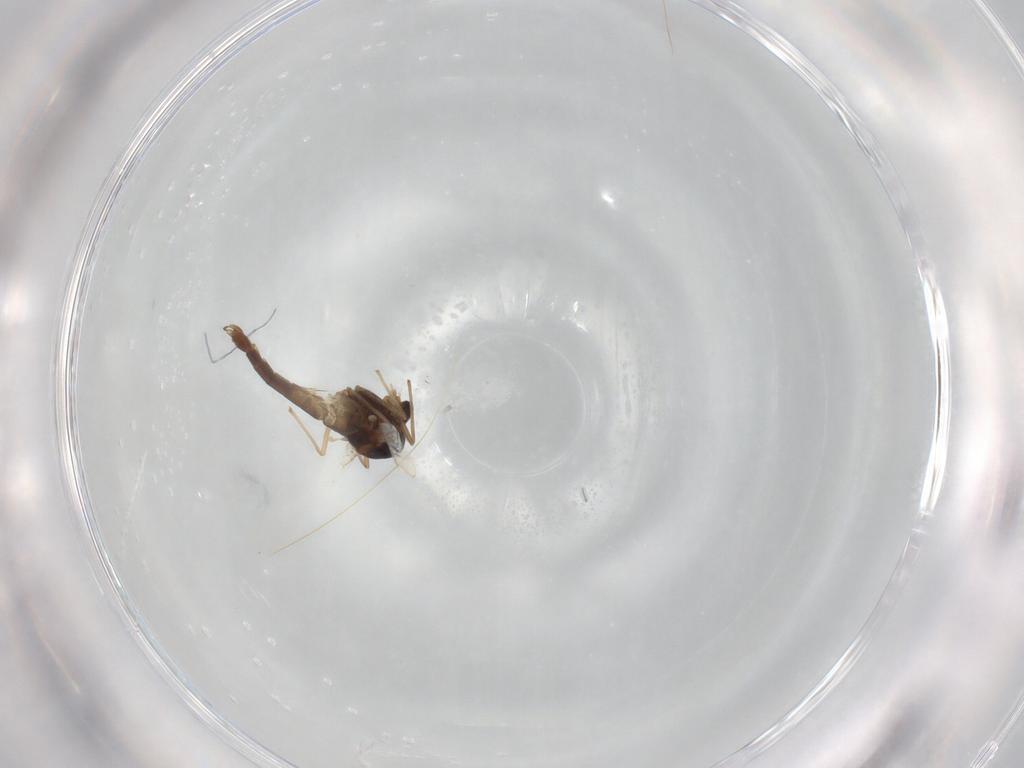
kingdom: Animalia
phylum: Arthropoda
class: Insecta
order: Diptera
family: Chironomidae
